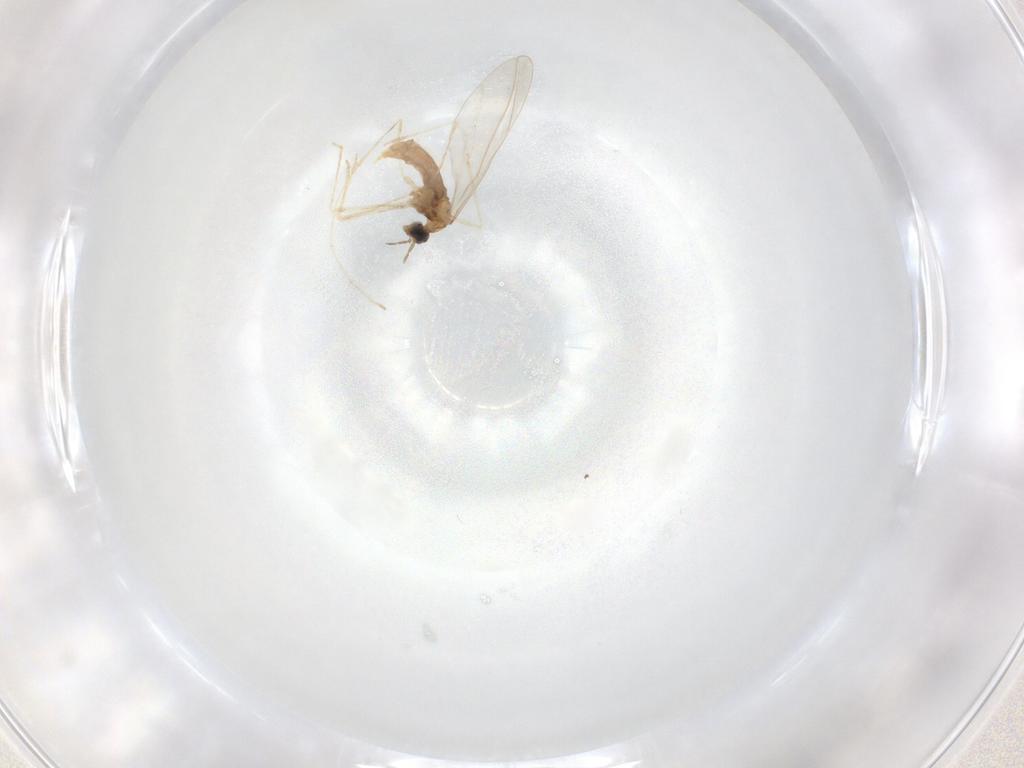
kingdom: Animalia
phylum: Arthropoda
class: Insecta
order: Diptera
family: Cecidomyiidae
